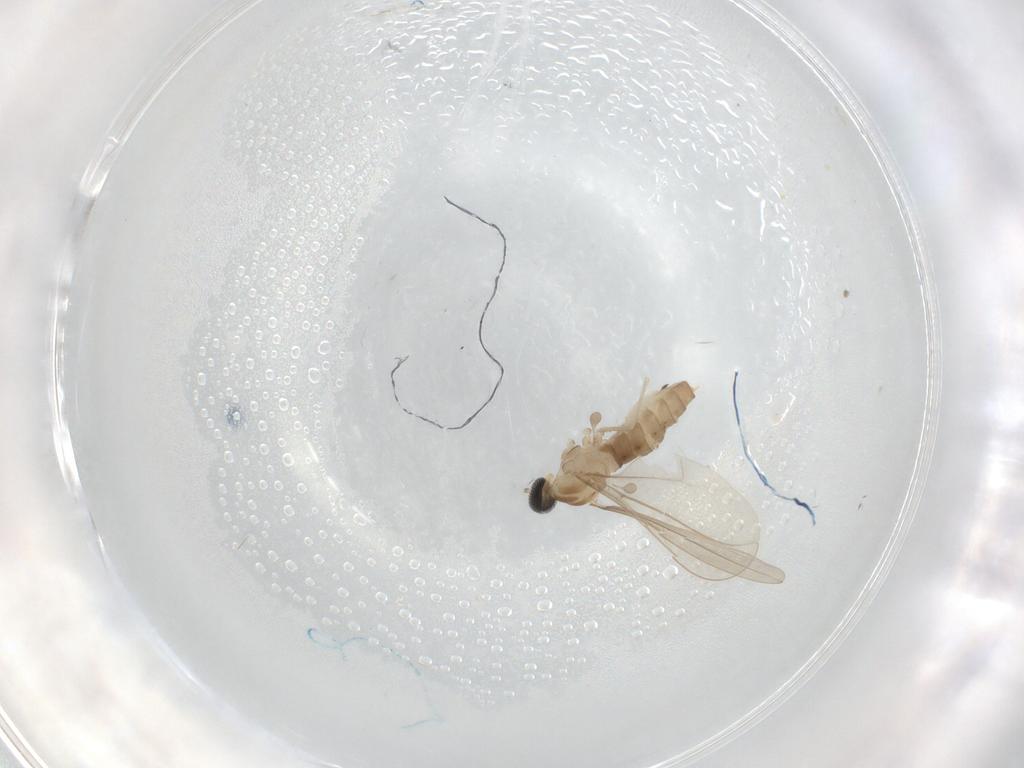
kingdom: Animalia
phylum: Arthropoda
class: Insecta
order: Diptera
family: Cecidomyiidae
